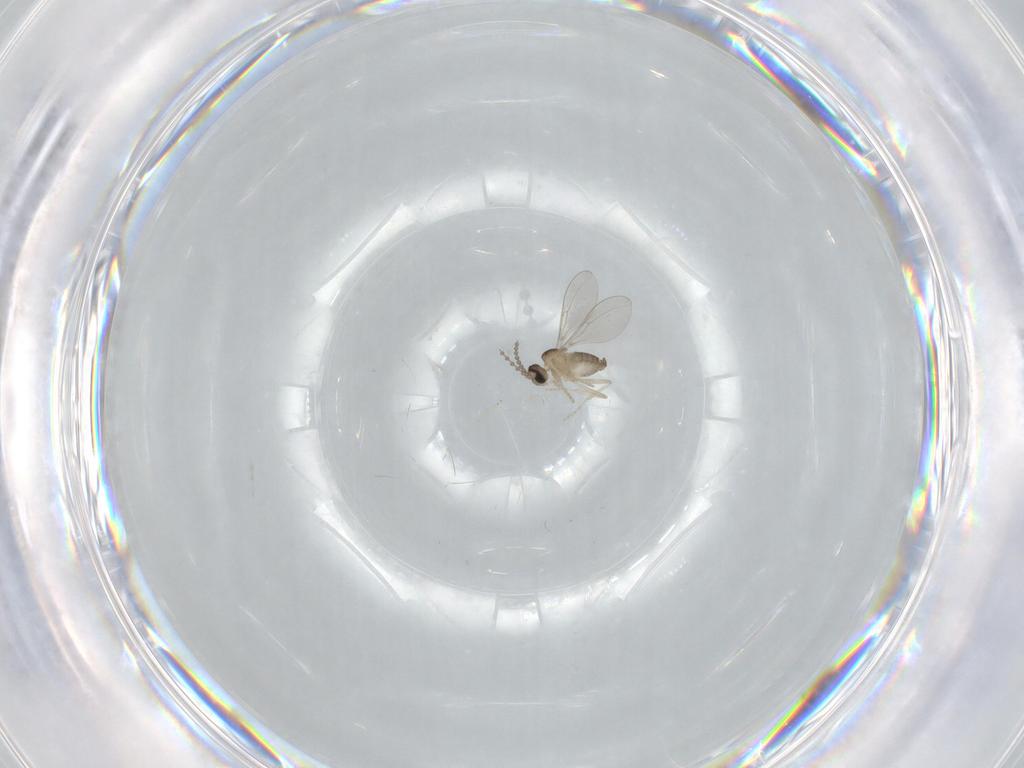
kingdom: Animalia
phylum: Arthropoda
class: Insecta
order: Diptera
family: Cecidomyiidae
